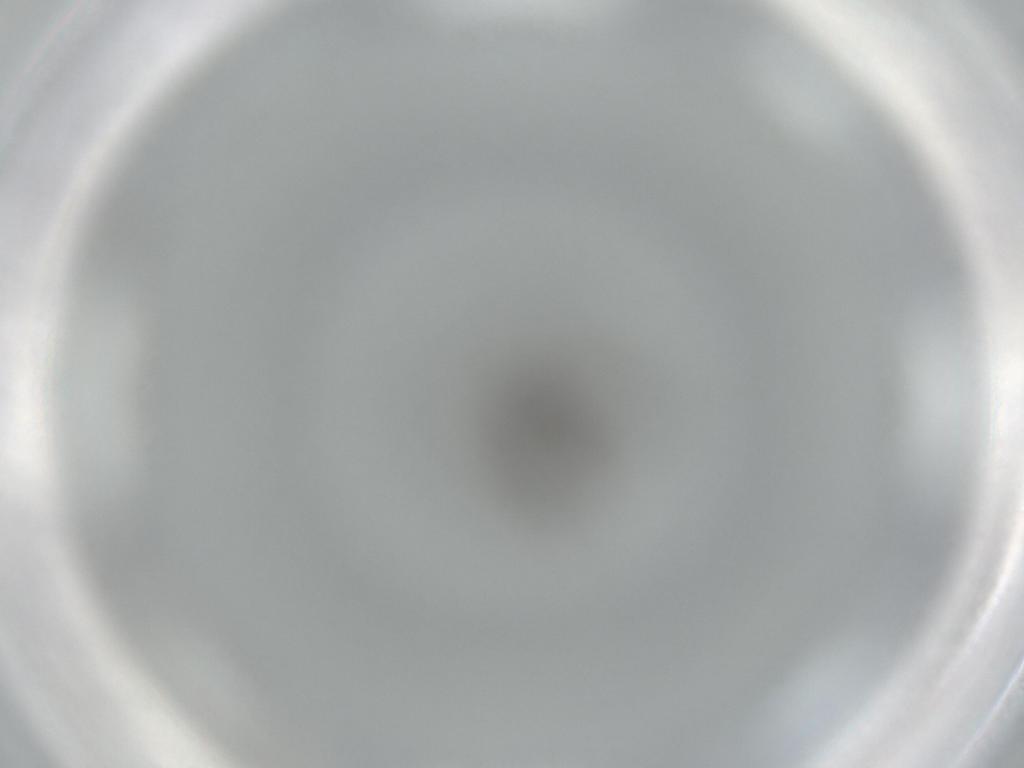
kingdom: Animalia
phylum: Arthropoda
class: Insecta
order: Diptera
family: Psychodidae
